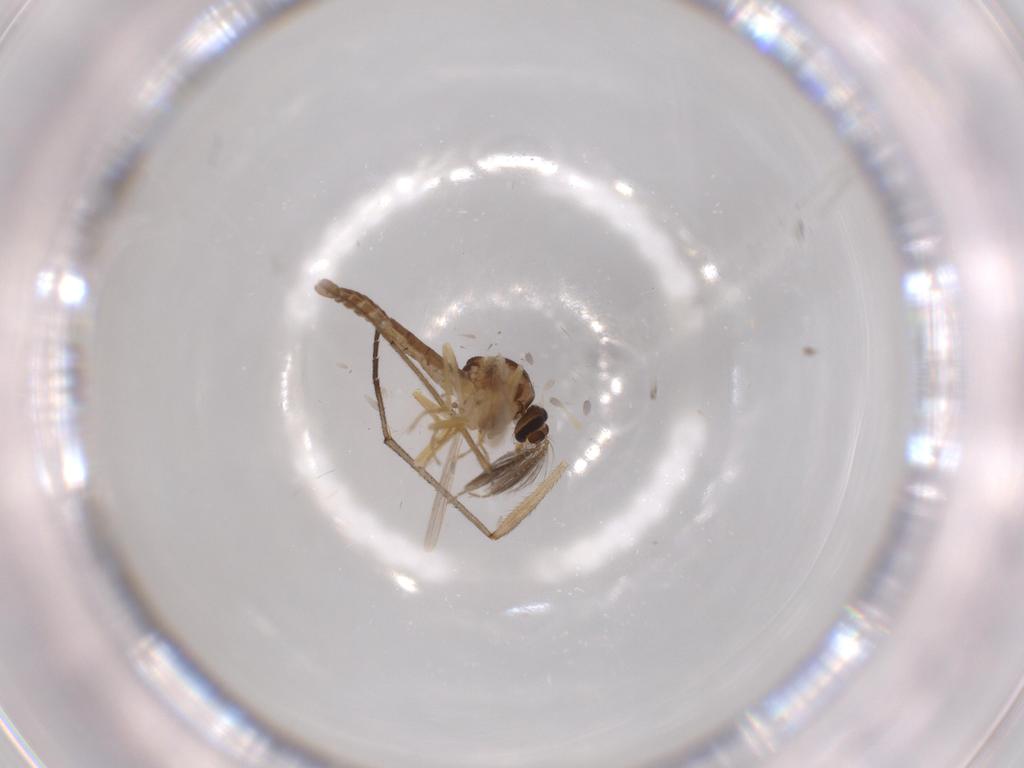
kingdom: Animalia
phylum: Arthropoda
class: Insecta
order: Diptera
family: Ceratopogonidae
